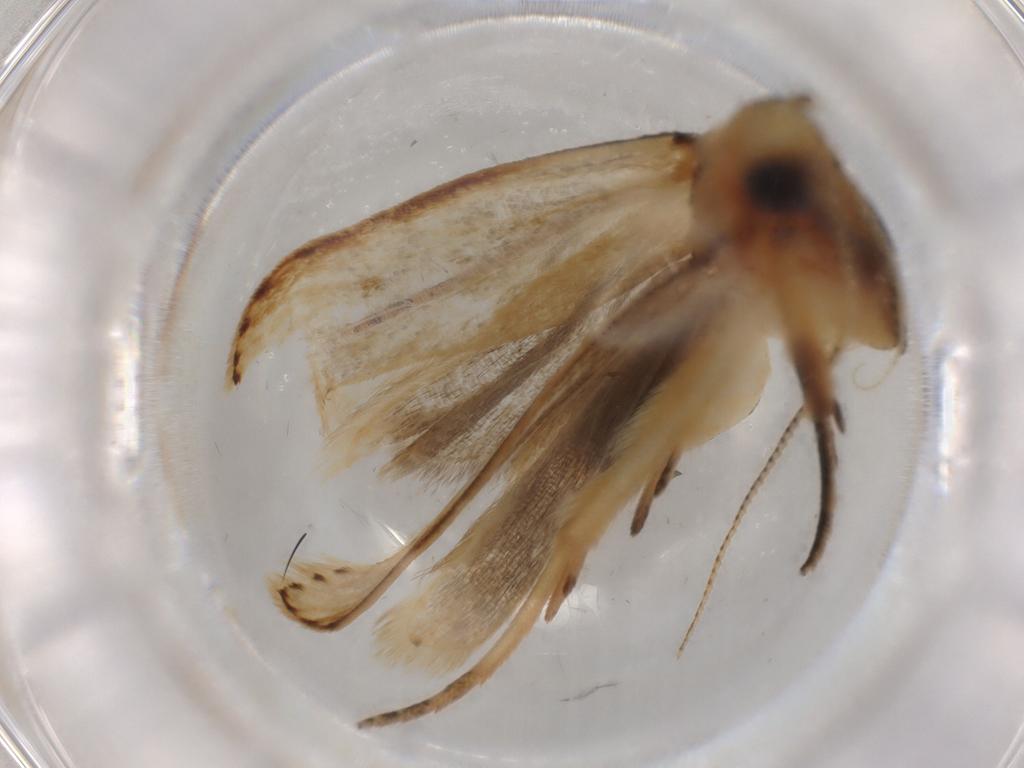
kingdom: Animalia
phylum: Arthropoda
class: Insecta
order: Lepidoptera
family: Gelechiidae
